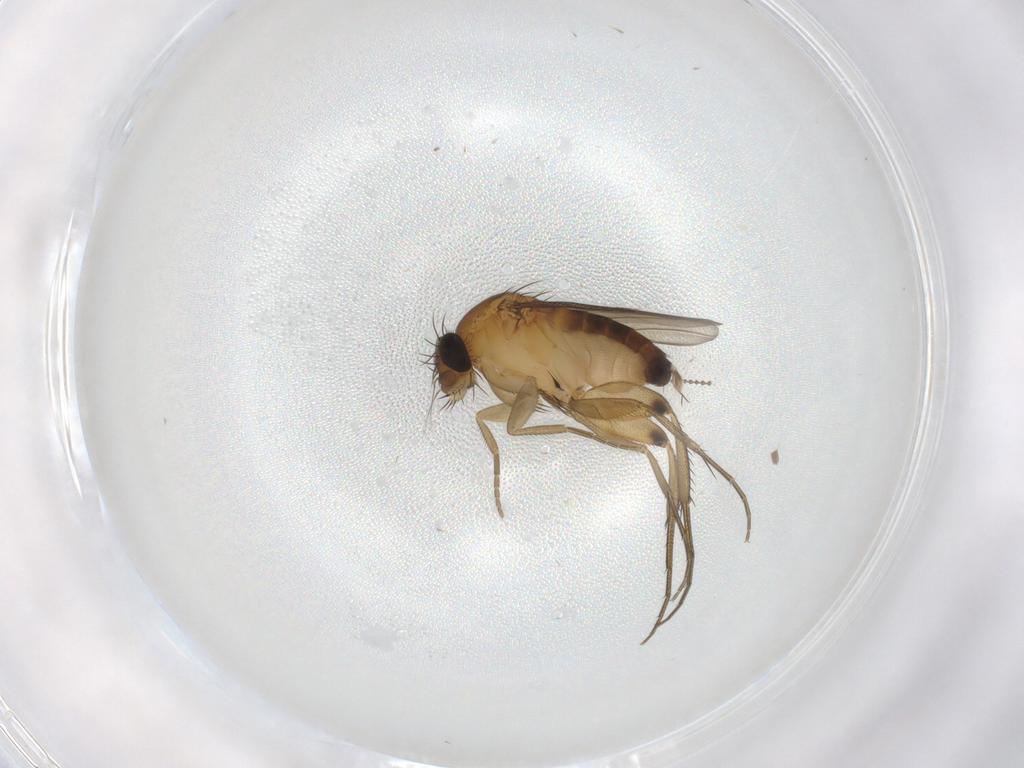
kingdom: Animalia
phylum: Arthropoda
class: Insecta
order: Diptera
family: Phoridae
